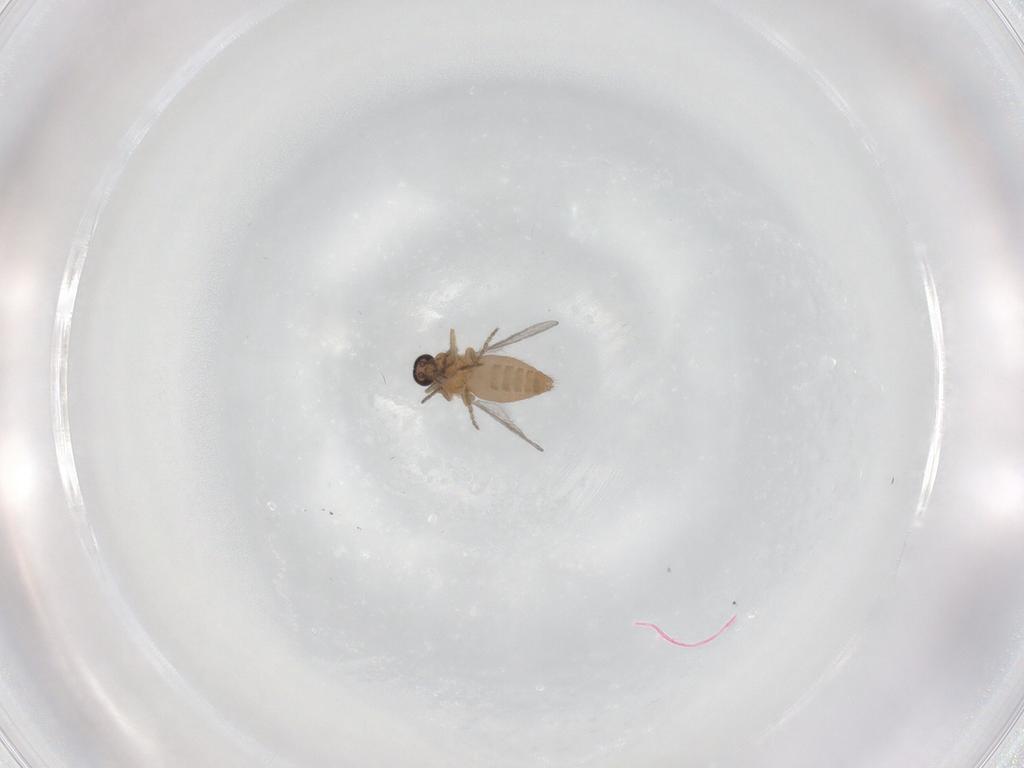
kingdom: Animalia
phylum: Arthropoda
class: Insecta
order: Diptera
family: Ceratopogonidae
